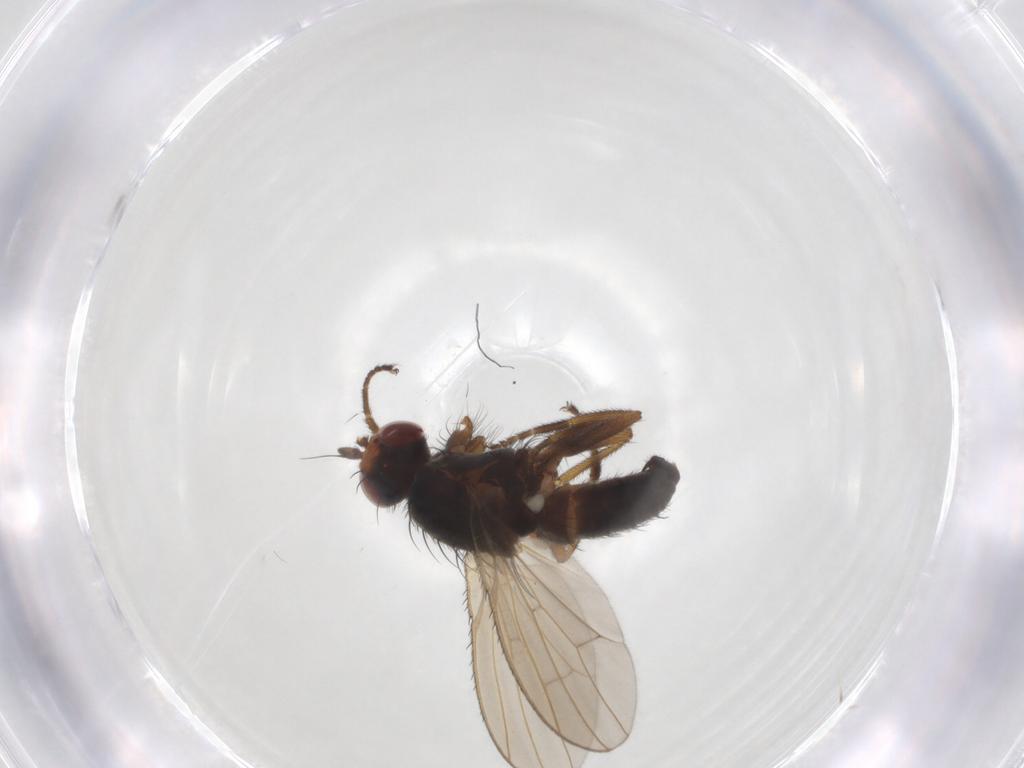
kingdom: Animalia
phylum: Arthropoda
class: Insecta
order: Diptera
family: Heleomyzidae
